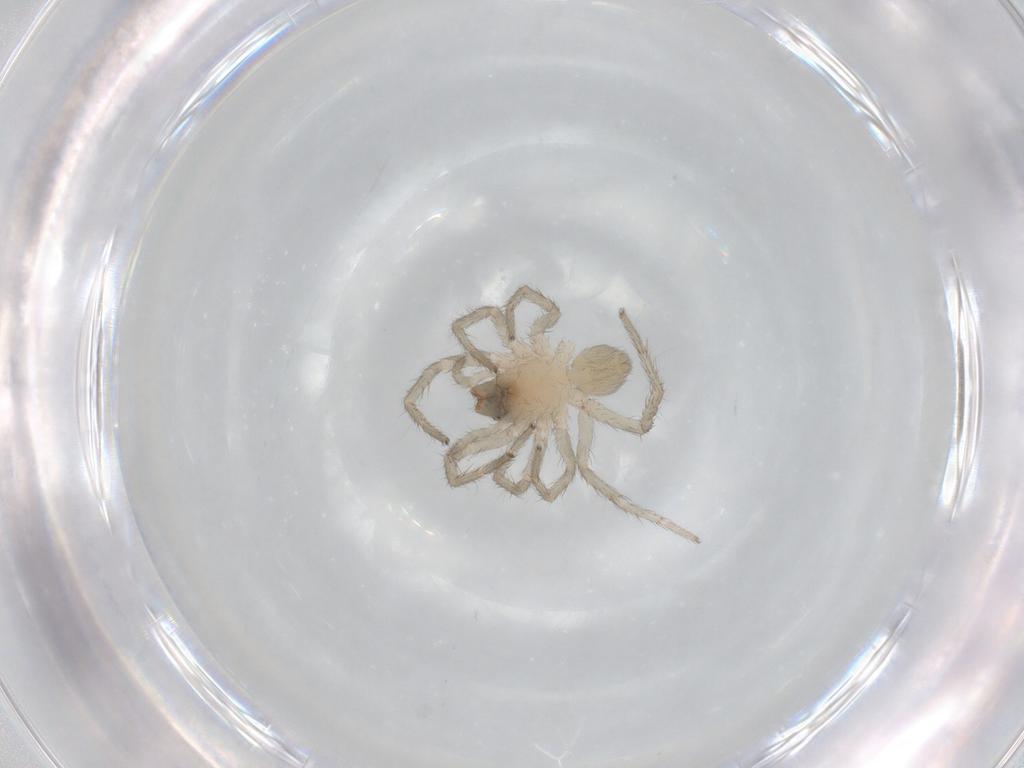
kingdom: Animalia
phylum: Arthropoda
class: Arachnida
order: Araneae
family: Lycosidae
